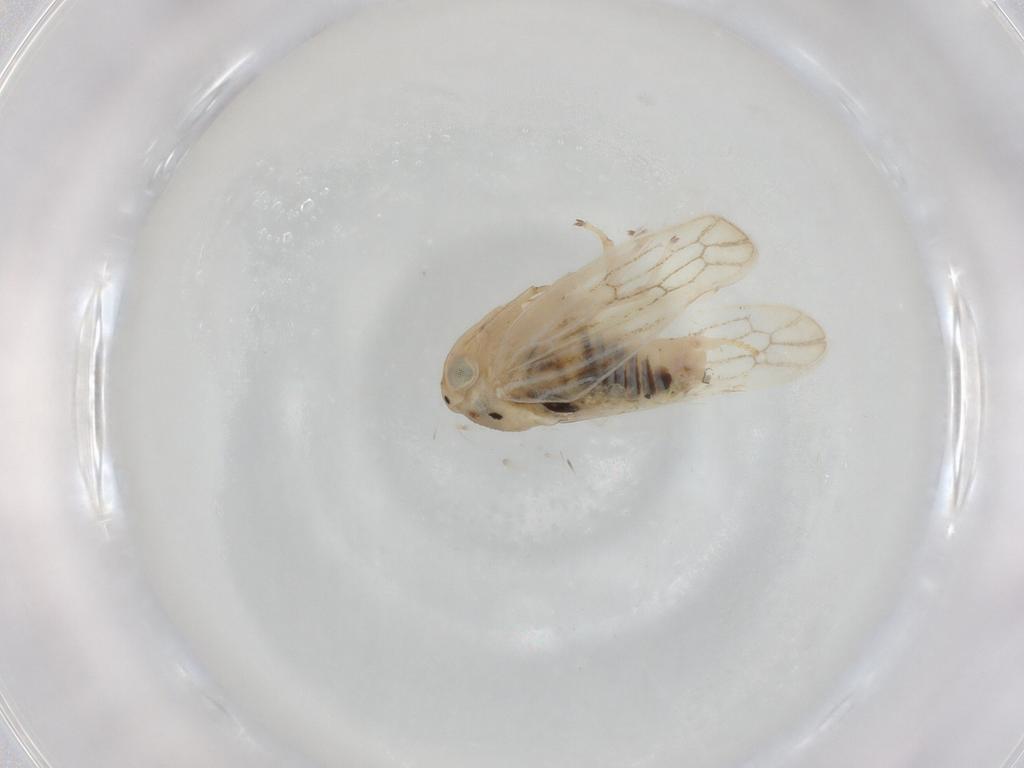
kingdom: Animalia
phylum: Arthropoda
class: Insecta
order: Hemiptera
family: Cicadellidae
